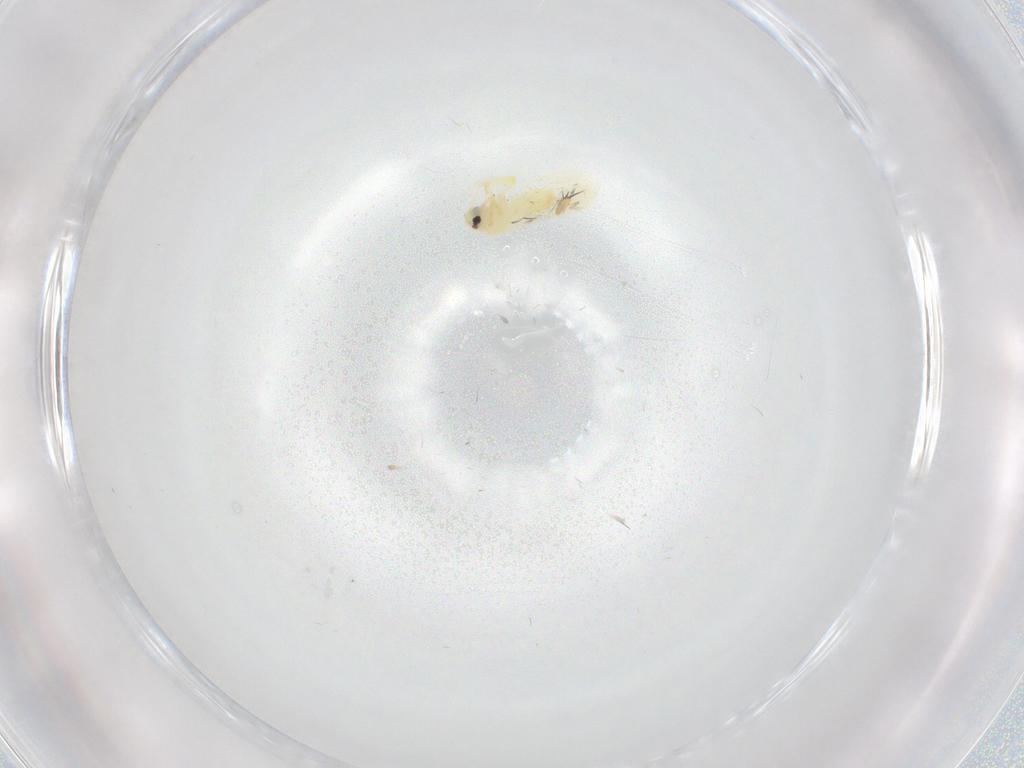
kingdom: Animalia
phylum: Arthropoda
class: Insecta
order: Hemiptera
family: Aleyrodidae
